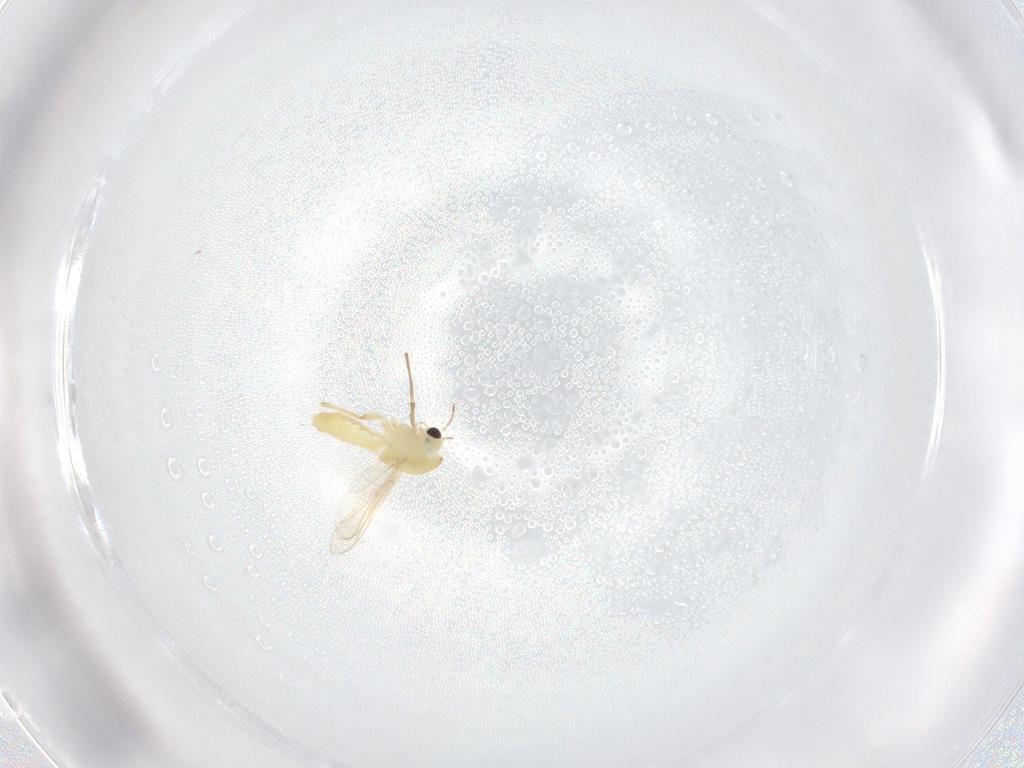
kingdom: Animalia
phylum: Arthropoda
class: Insecta
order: Diptera
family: Chironomidae
